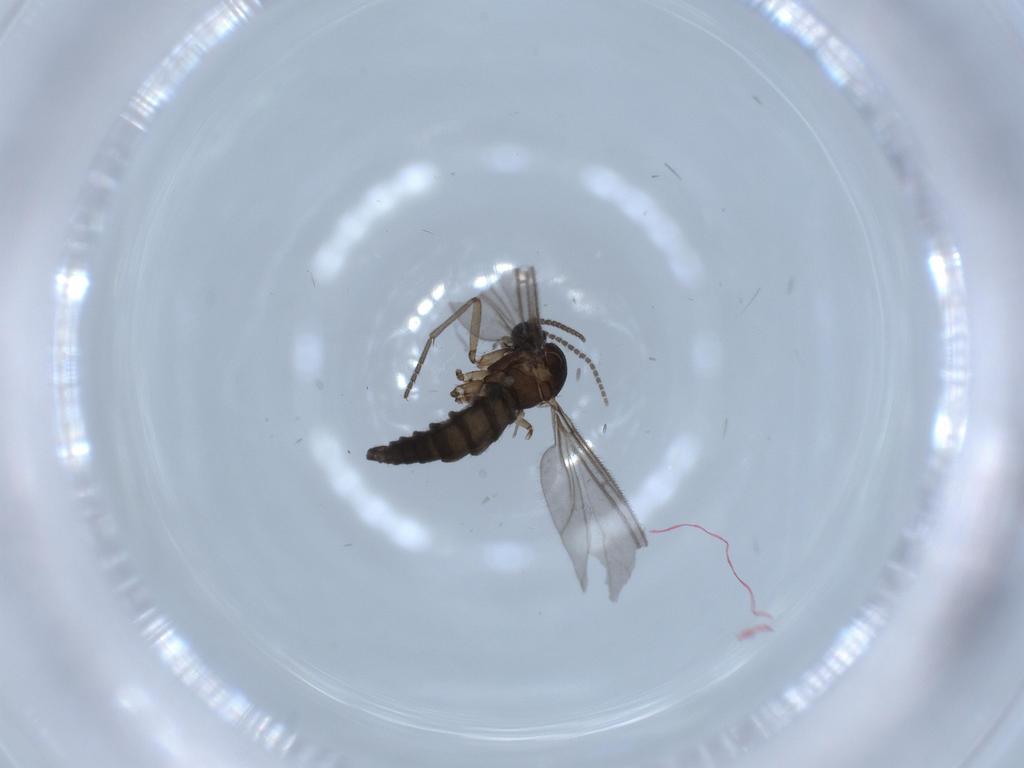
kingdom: Animalia
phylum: Arthropoda
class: Insecta
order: Diptera
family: Sciaridae
